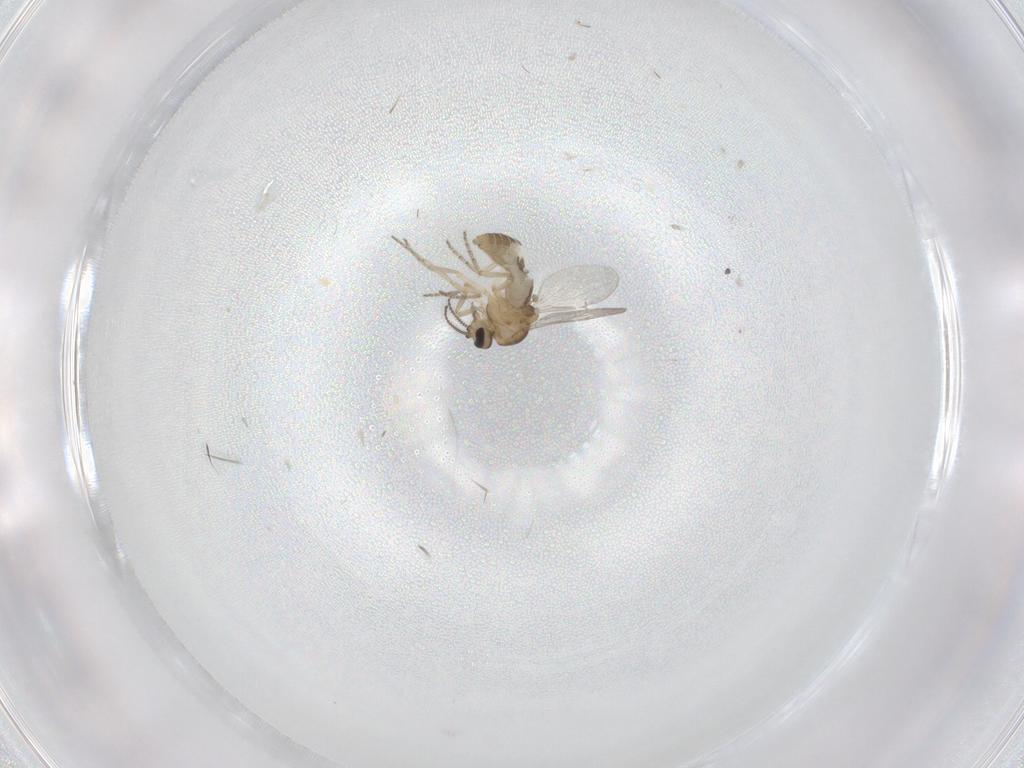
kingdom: Animalia
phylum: Arthropoda
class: Insecta
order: Diptera
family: Ceratopogonidae
